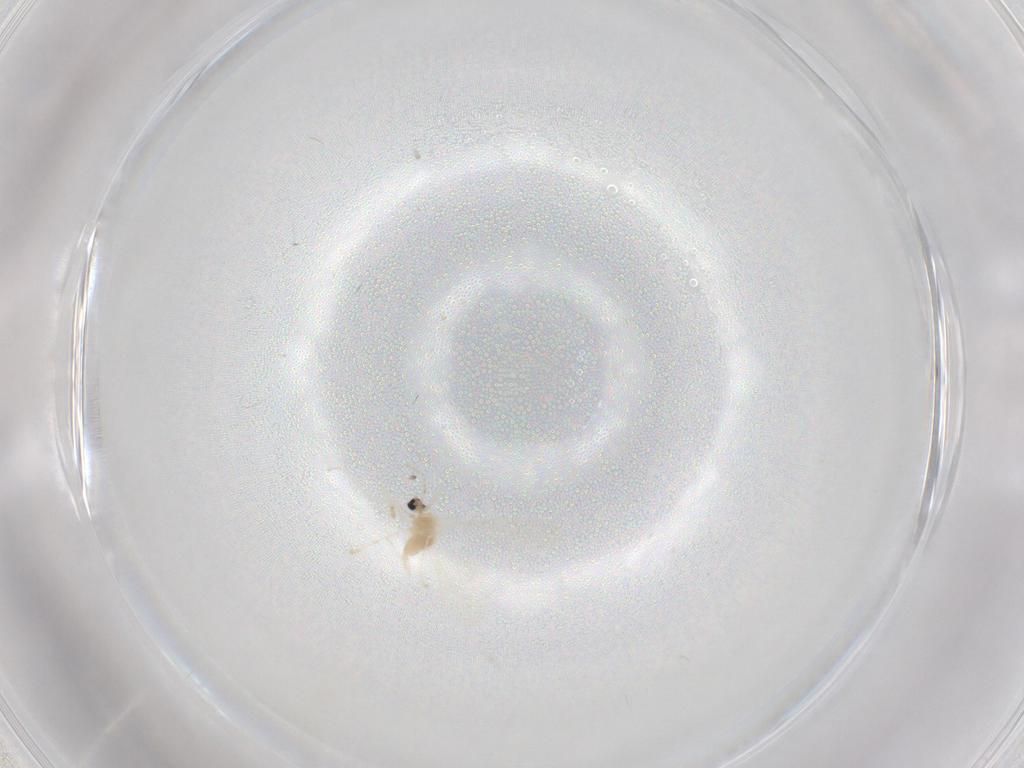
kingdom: Animalia
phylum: Arthropoda
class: Insecta
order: Diptera
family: Cecidomyiidae
